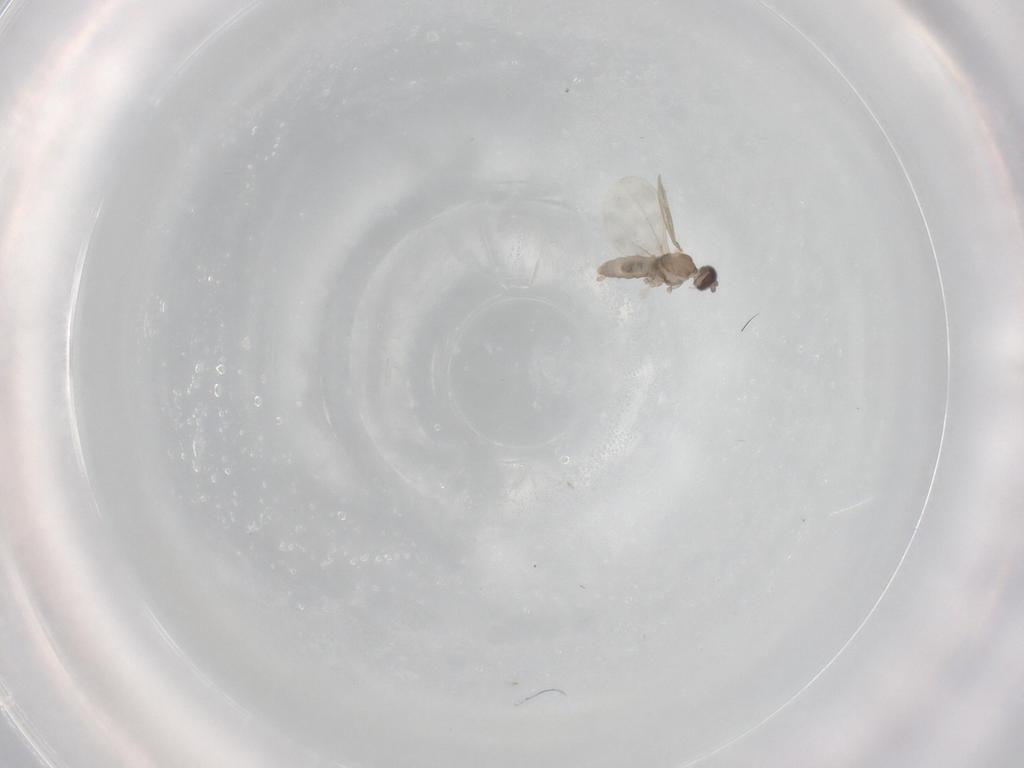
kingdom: Animalia
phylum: Arthropoda
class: Insecta
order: Diptera
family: Syrphidae
